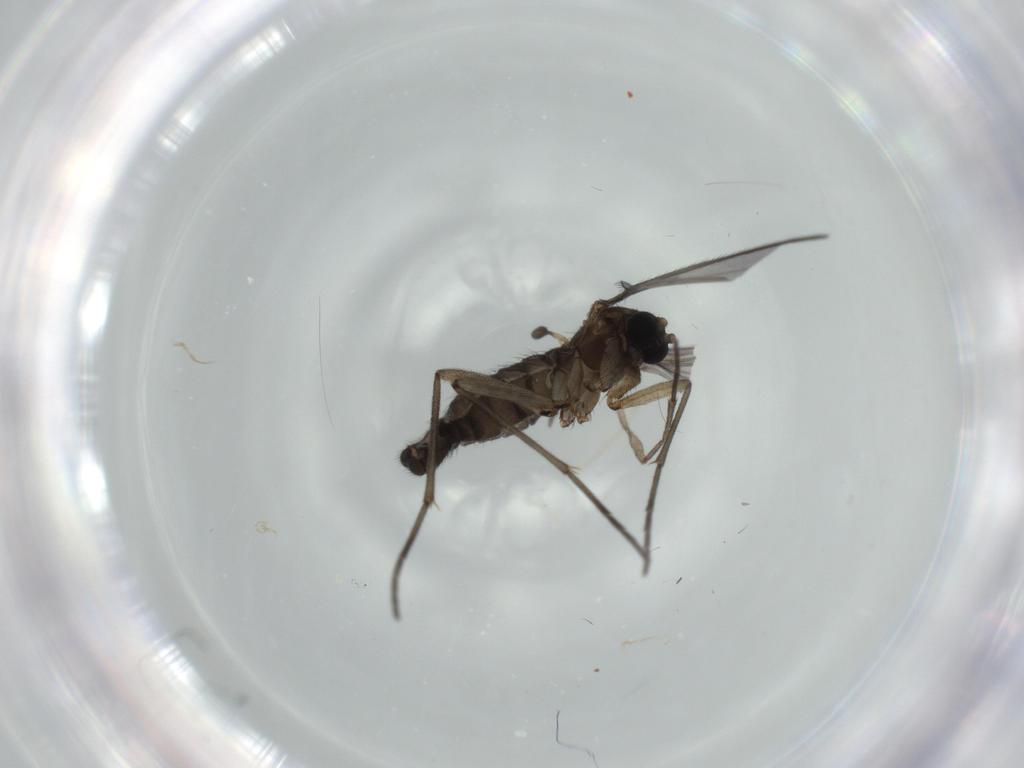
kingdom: Animalia
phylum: Arthropoda
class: Insecta
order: Diptera
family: Sciaridae
